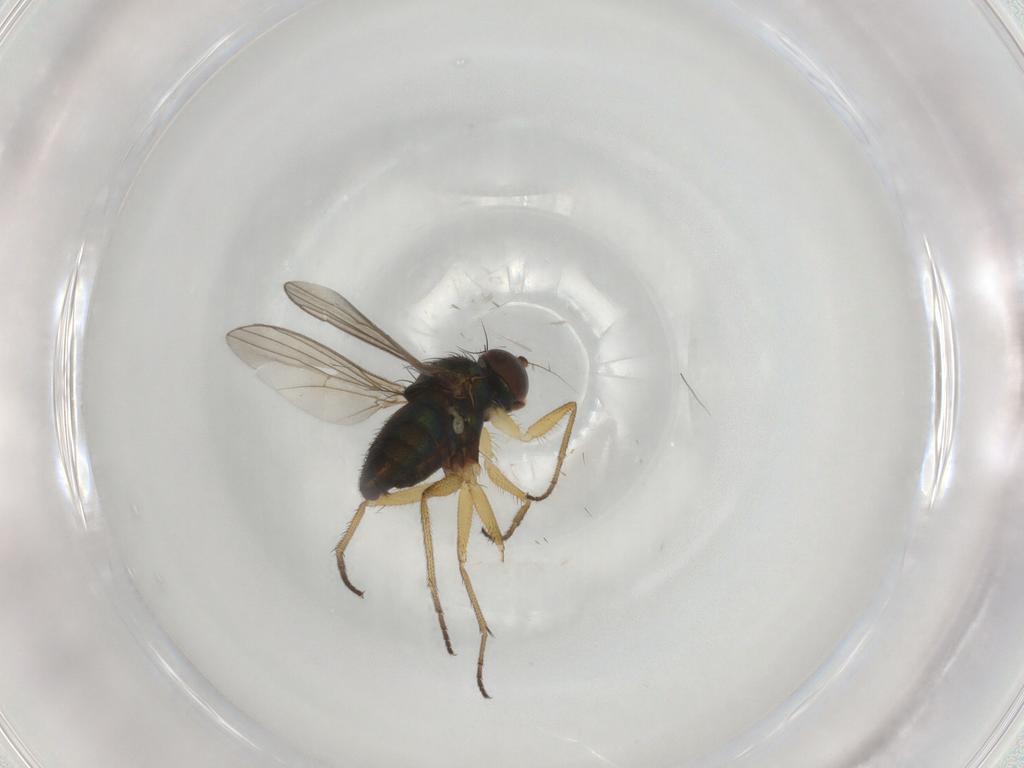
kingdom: Animalia
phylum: Arthropoda
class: Insecta
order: Diptera
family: Dolichopodidae
